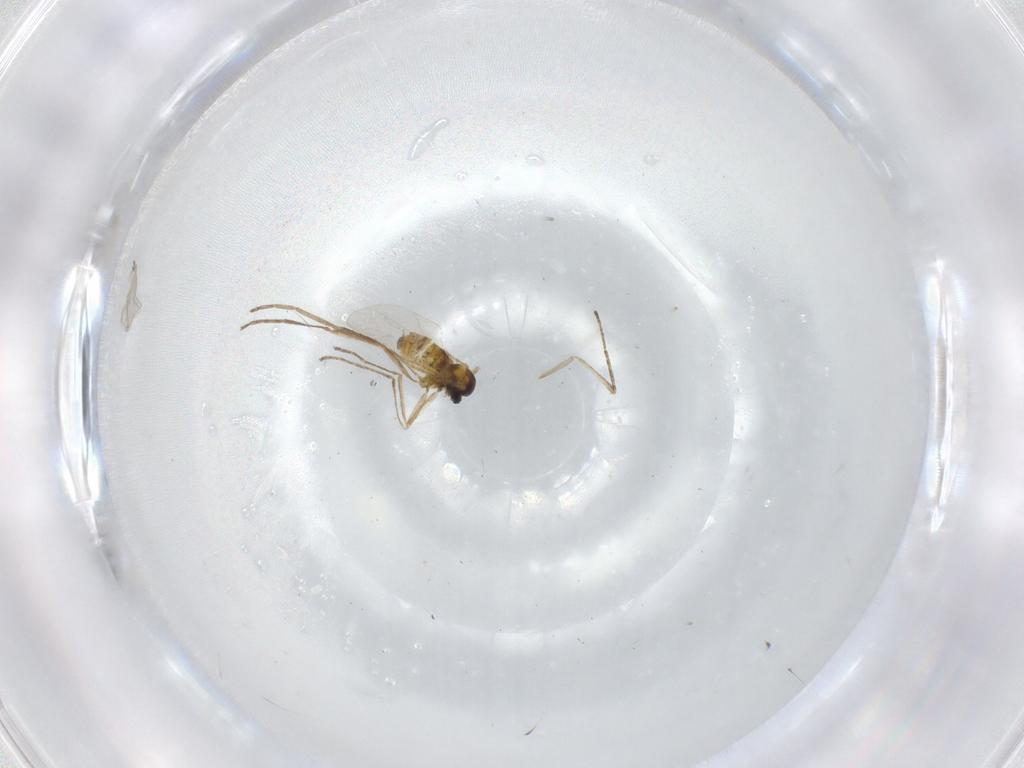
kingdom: Animalia
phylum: Arthropoda
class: Insecta
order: Diptera
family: Cecidomyiidae
